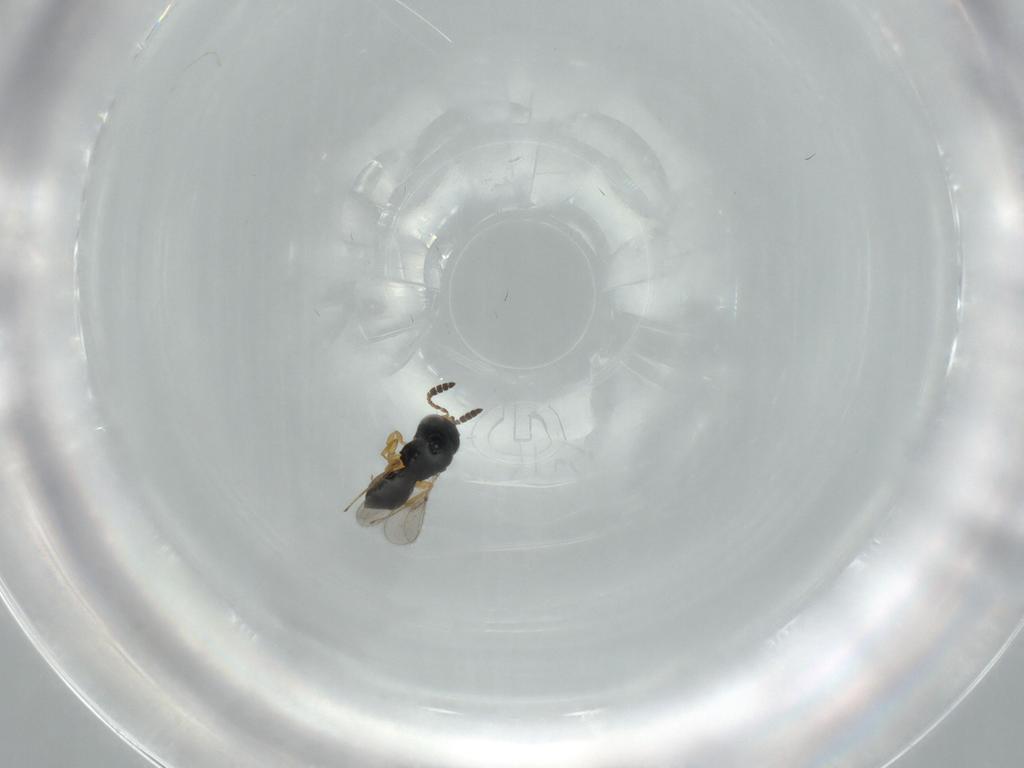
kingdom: Animalia
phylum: Arthropoda
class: Insecta
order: Hymenoptera
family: Scelionidae
